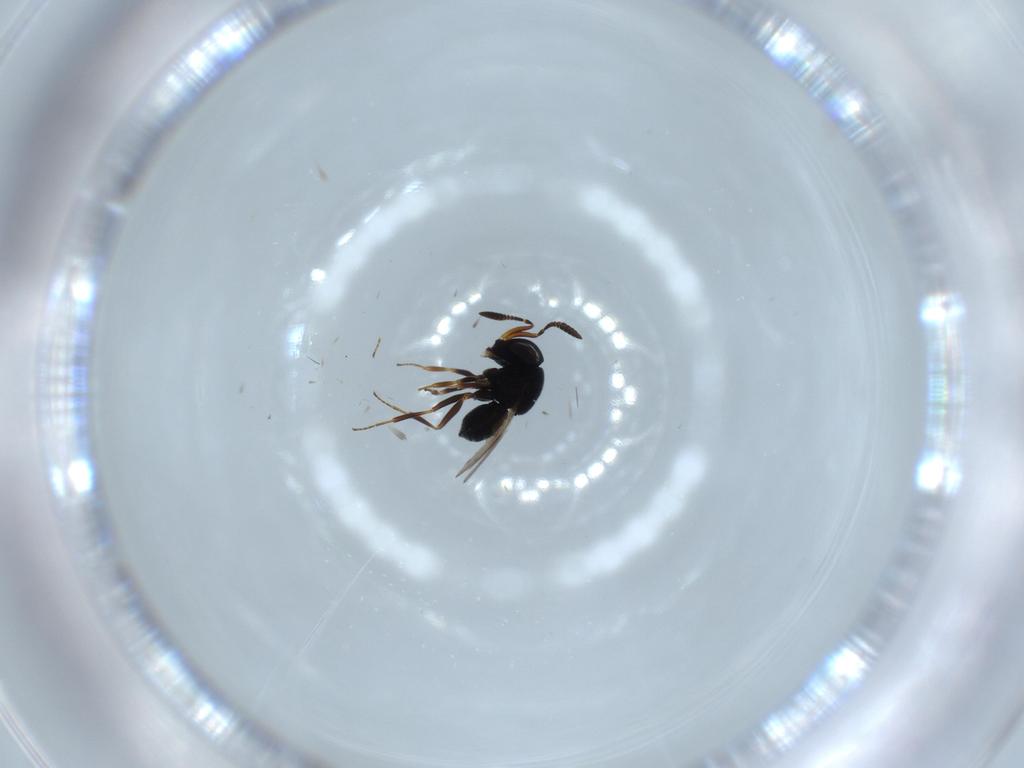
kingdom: Animalia
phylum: Arthropoda
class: Insecta
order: Hymenoptera
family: Platygastridae
